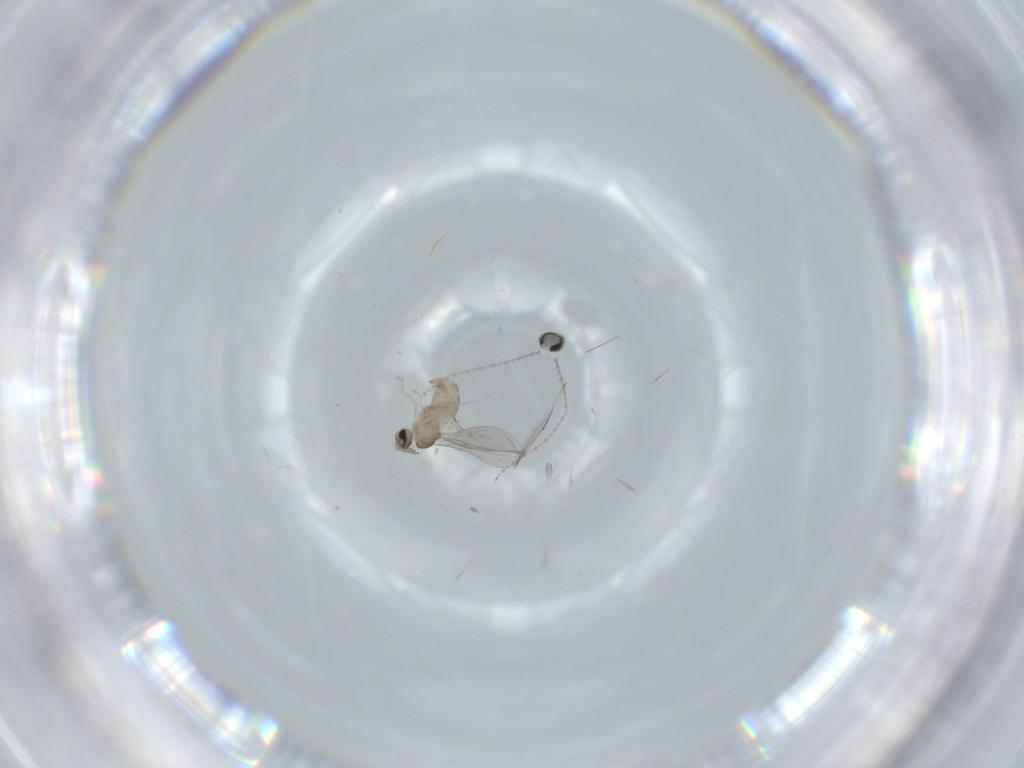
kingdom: Animalia
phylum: Arthropoda
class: Insecta
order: Diptera
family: Cecidomyiidae
